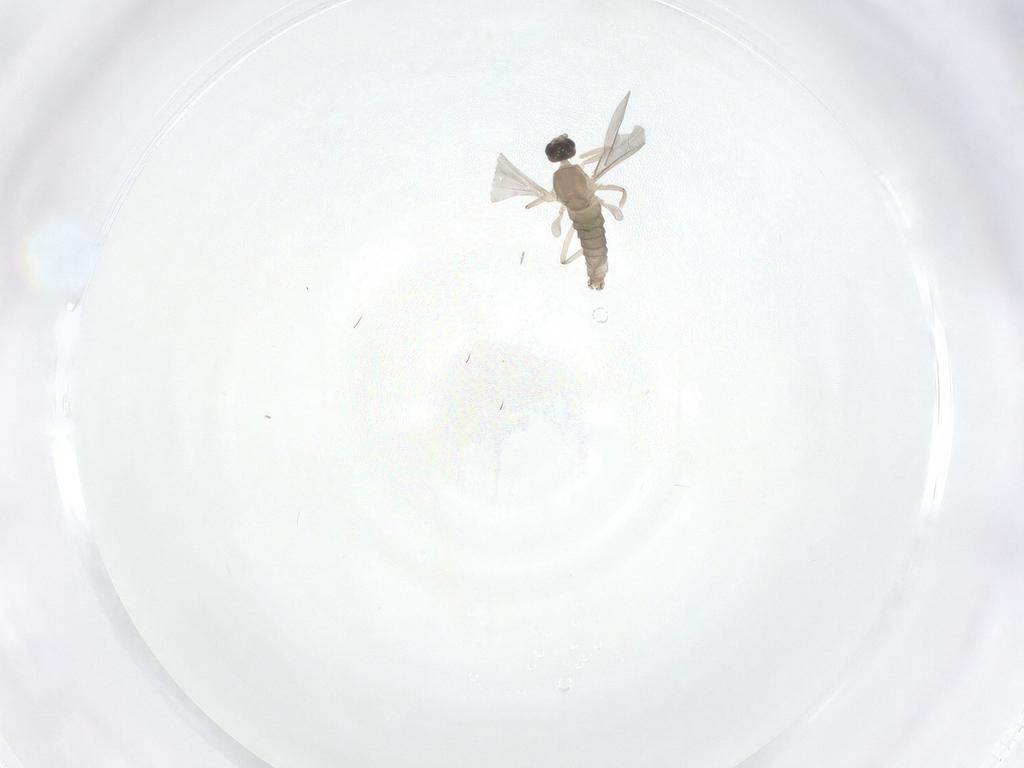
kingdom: Animalia
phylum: Arthropoda
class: Insecta
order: Diptera
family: Cecidomyiidae
